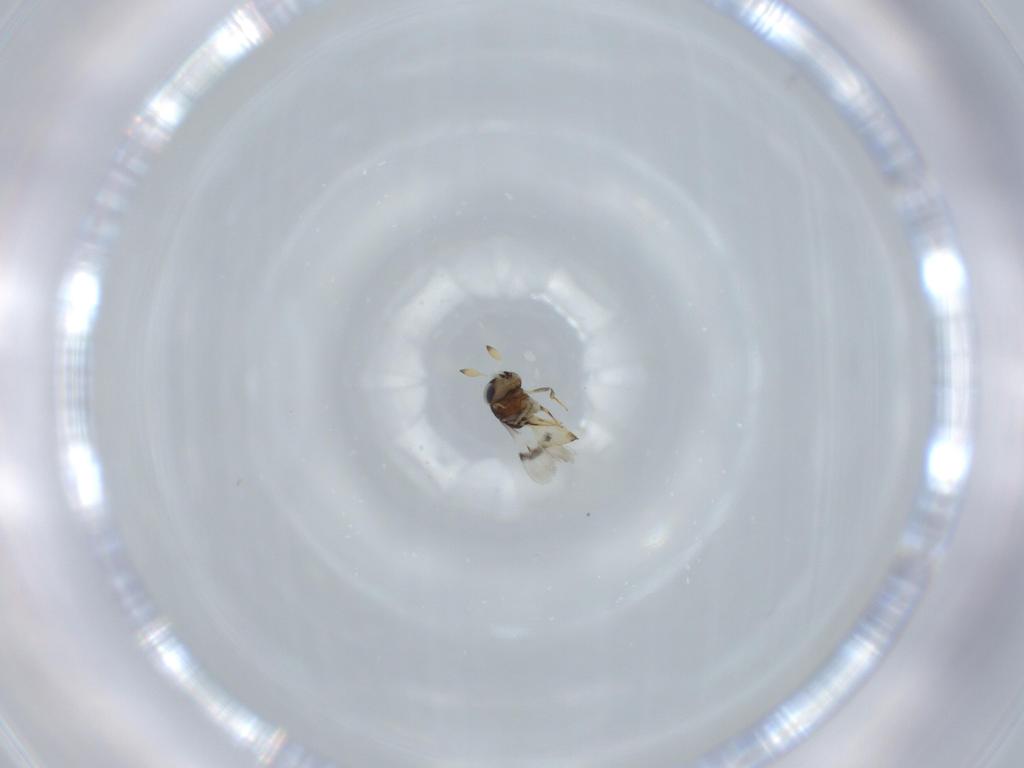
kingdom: Animalia
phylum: Arthropoda
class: Insecta
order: Hymenoptera
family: Scelionidae
